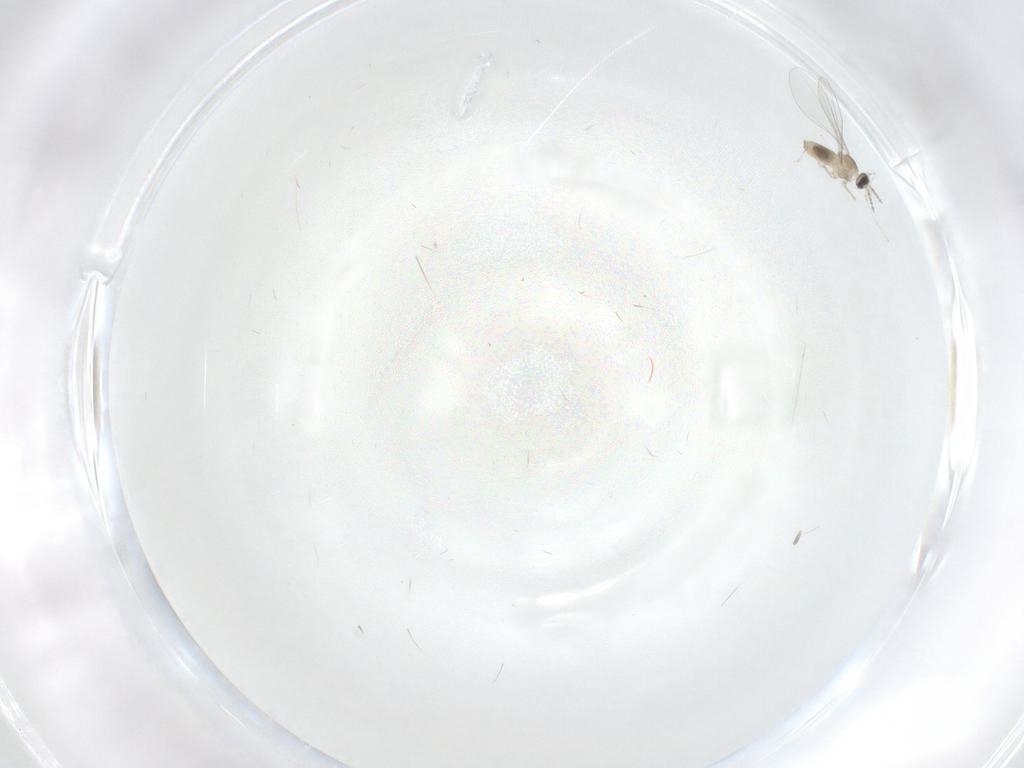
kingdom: Animalia
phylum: Arthropoda
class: Insecta
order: Diptera
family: Cecidomyiidae
